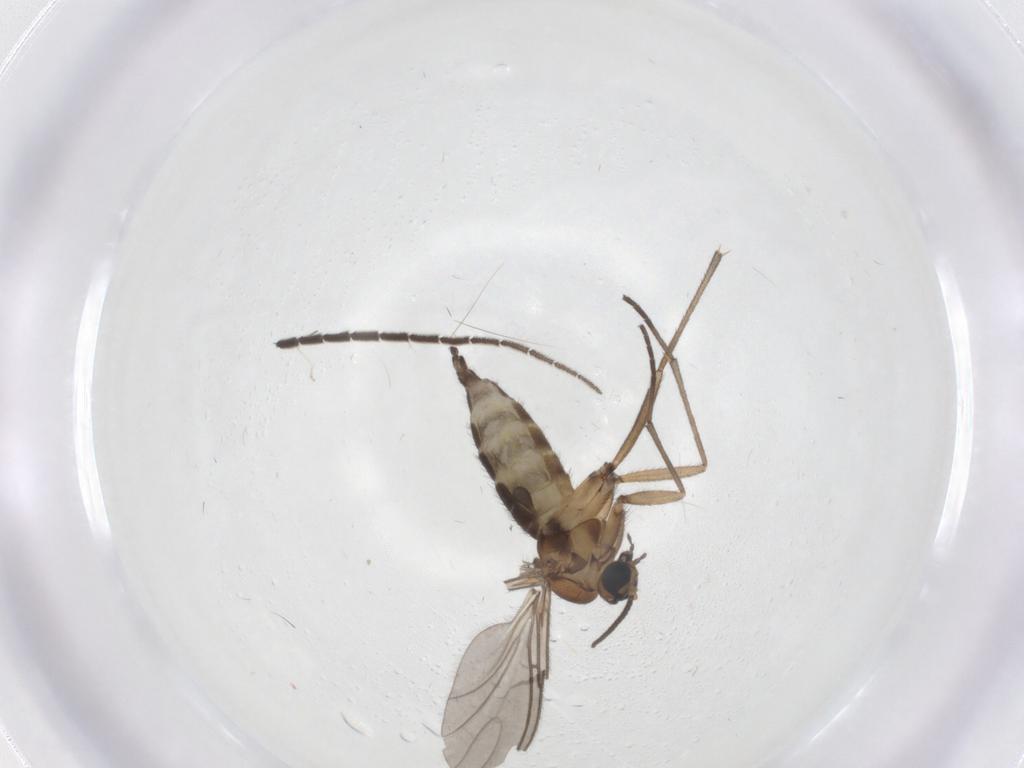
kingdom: Animalia
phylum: Arthropoda
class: Insecta
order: Diptera
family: Sciaridae
